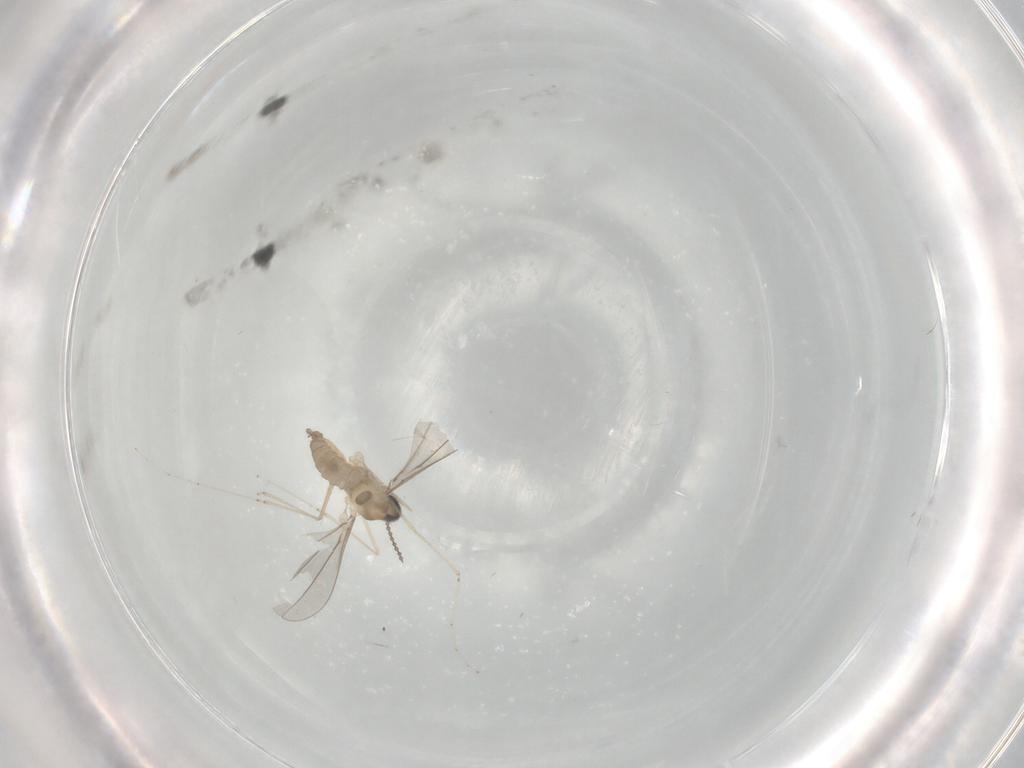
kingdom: Animalia
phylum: Arthropoda
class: Insecta
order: Diptera
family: Cecidomyiidae
